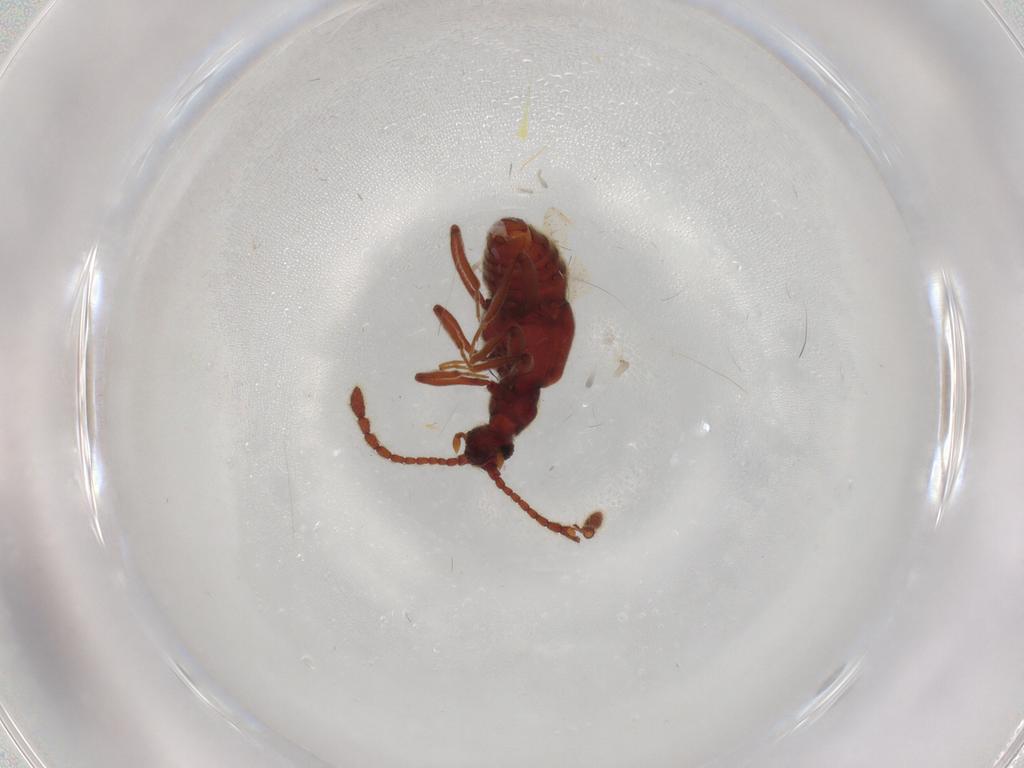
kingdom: Animalia
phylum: Arthropoda
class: Insecta
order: Coleoptera
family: Staphylinidae
